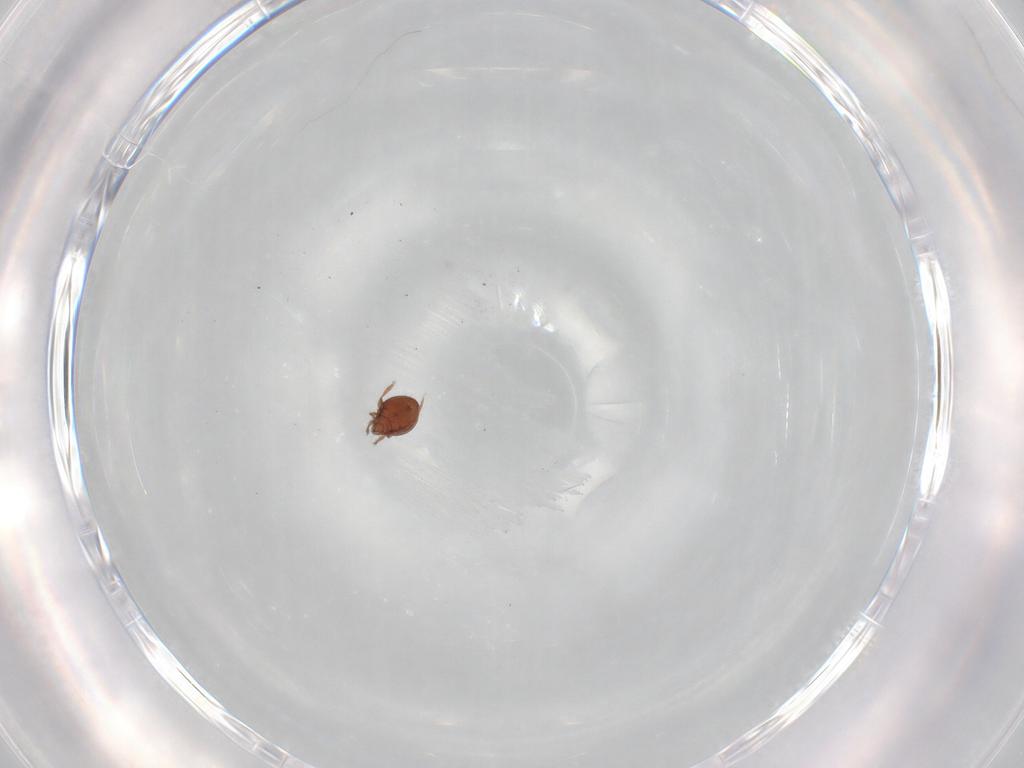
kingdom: Animalia
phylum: Arthropoda
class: Arachnida
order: Sarcoptiformes
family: Oribatulidae
